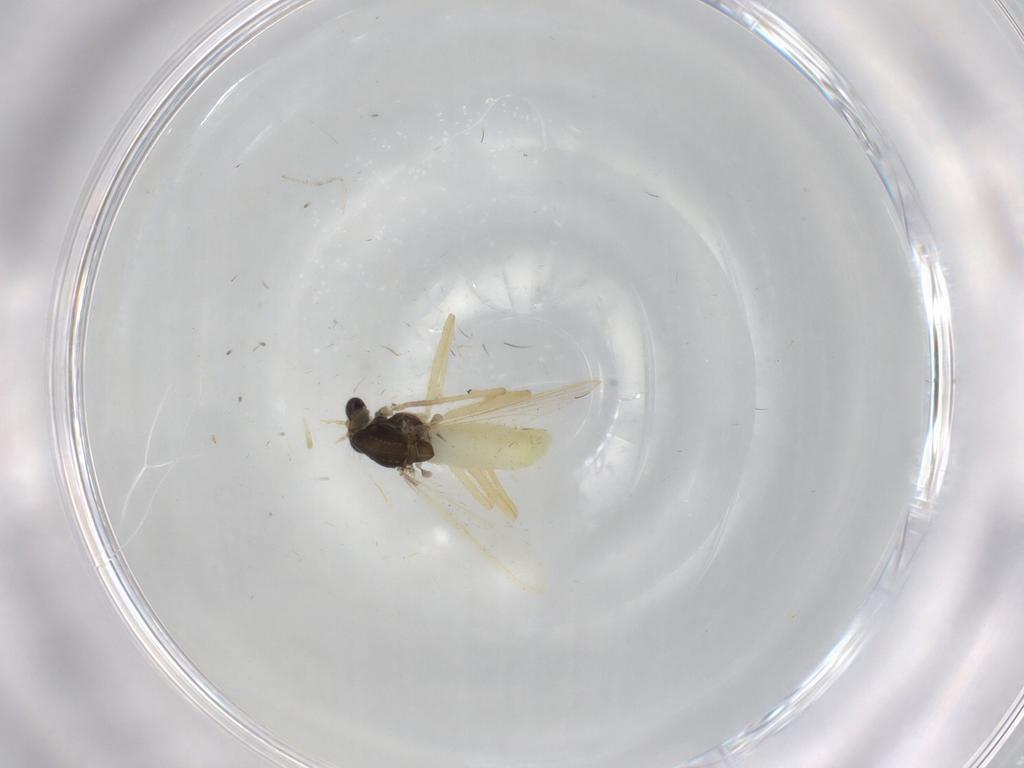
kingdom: Animalia
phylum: Arthropoda
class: Insecta
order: Diptera
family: Chironomidae
